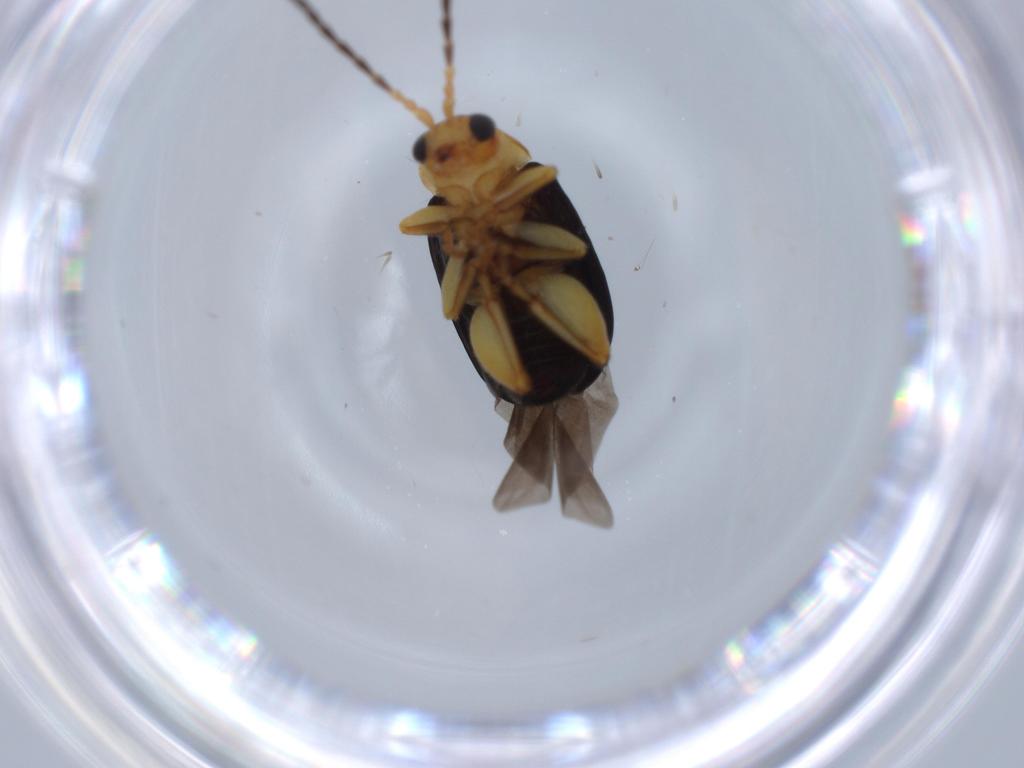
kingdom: Animalia
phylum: Arthropoda
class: Insecta
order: Coleoptera
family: Chrysomelidae
